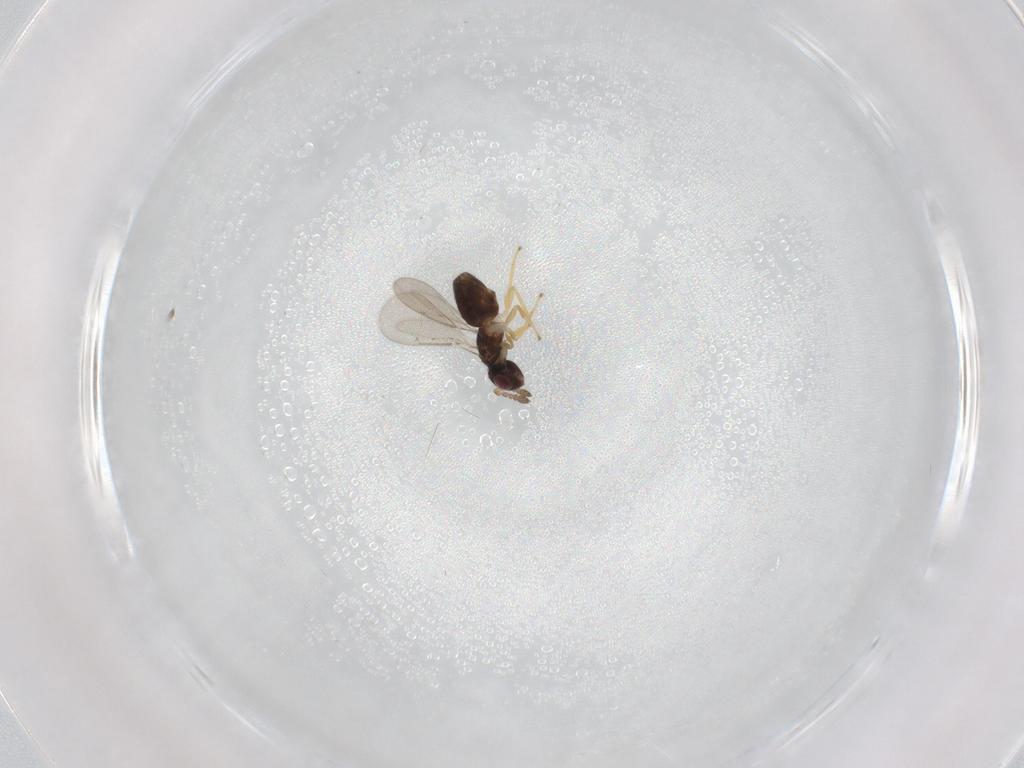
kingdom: Animalia
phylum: Arthropoda
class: Insecta
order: Hymenoptera
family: Eulophidae
